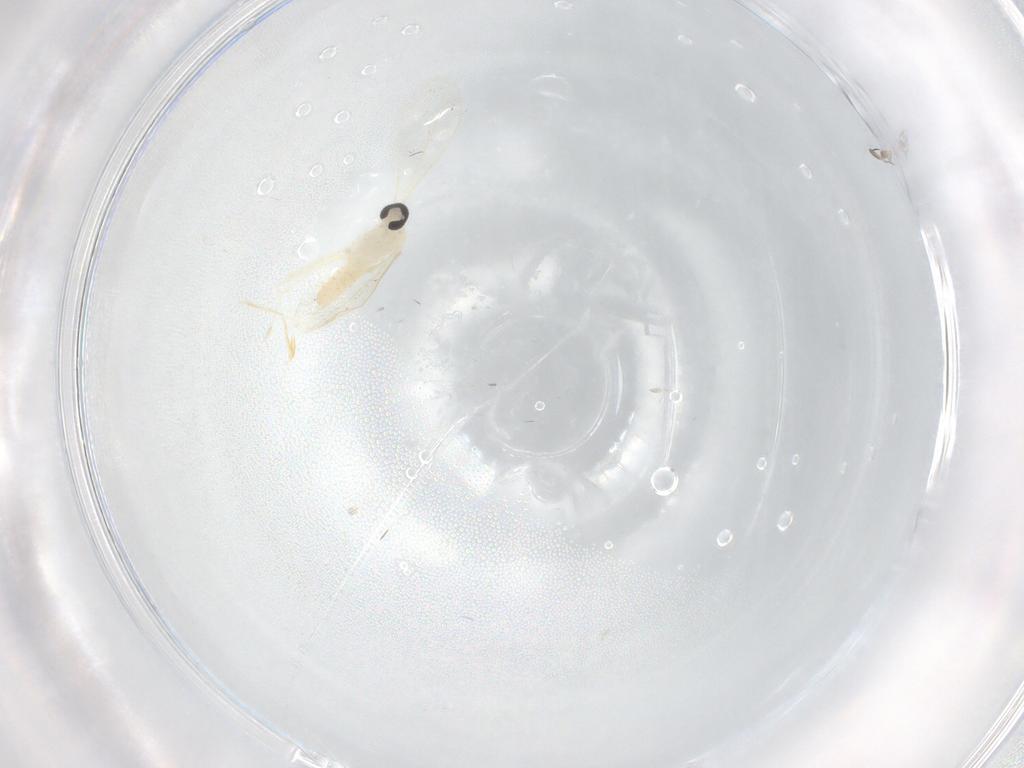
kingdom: Animalia
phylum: Arthropoda
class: Insecta
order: Diptera
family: Cecidomyiidae
